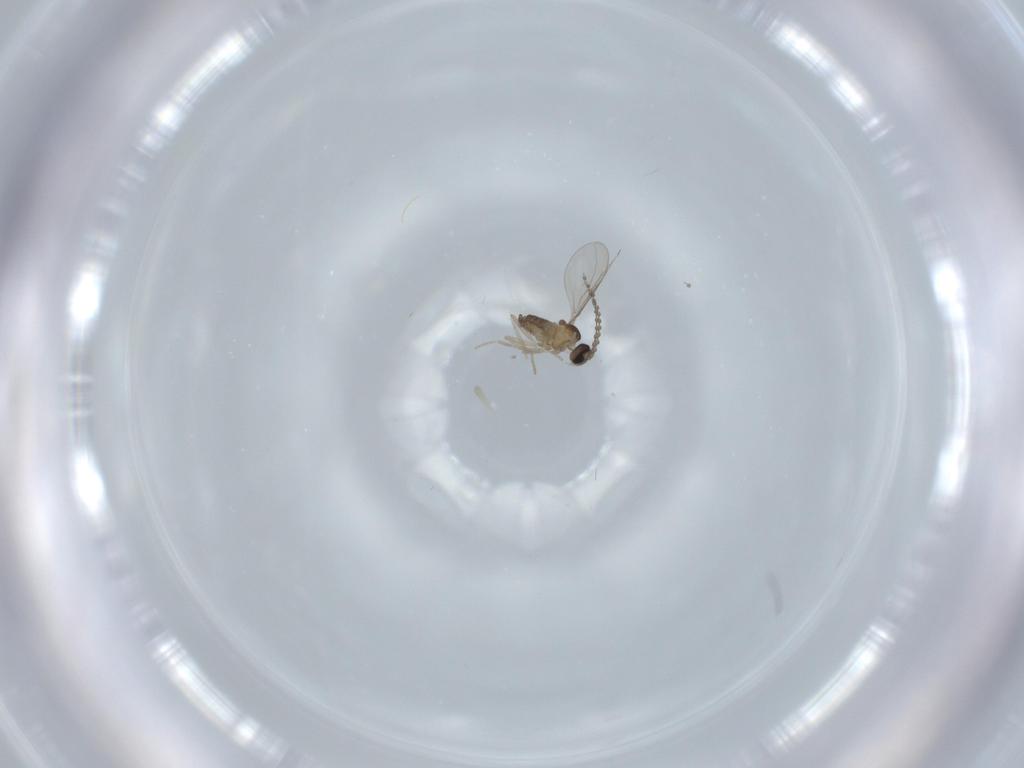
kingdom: Animalia
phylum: Arthropoda
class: Insecta
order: Diptera
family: Cecidomyiidae
